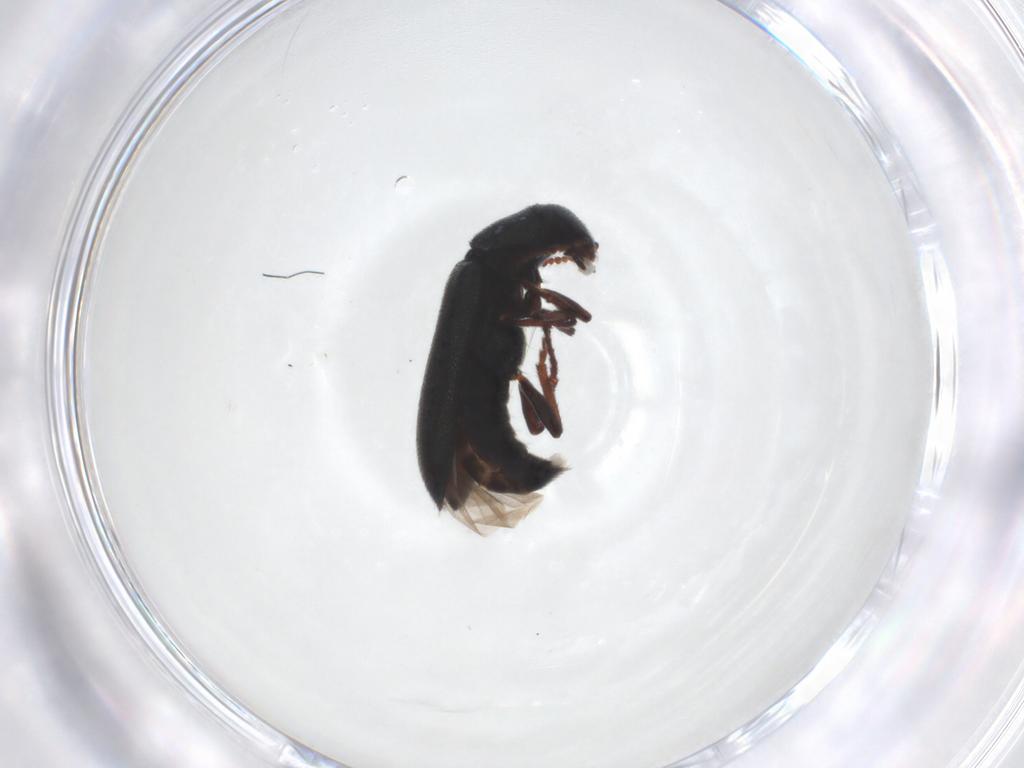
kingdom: Animalia
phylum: Arthropoda
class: Insecta
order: Coleoptera
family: Melyridae
